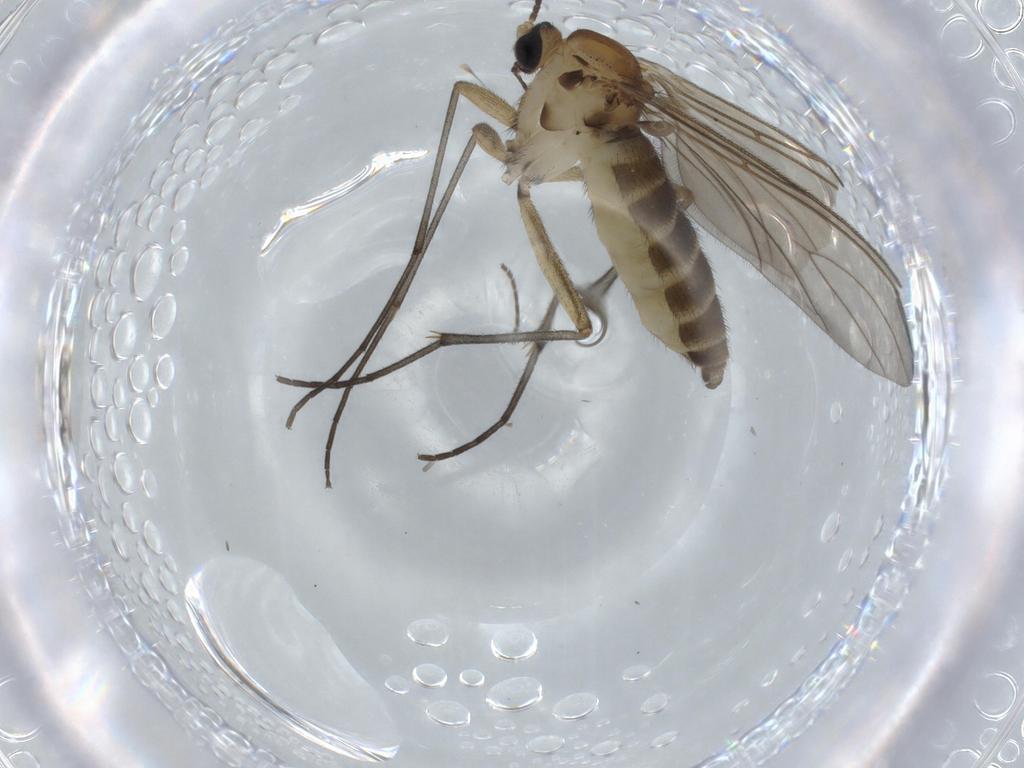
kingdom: Animalia
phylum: Arthropoda
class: Insecta
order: Diptera
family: Sciaridae
